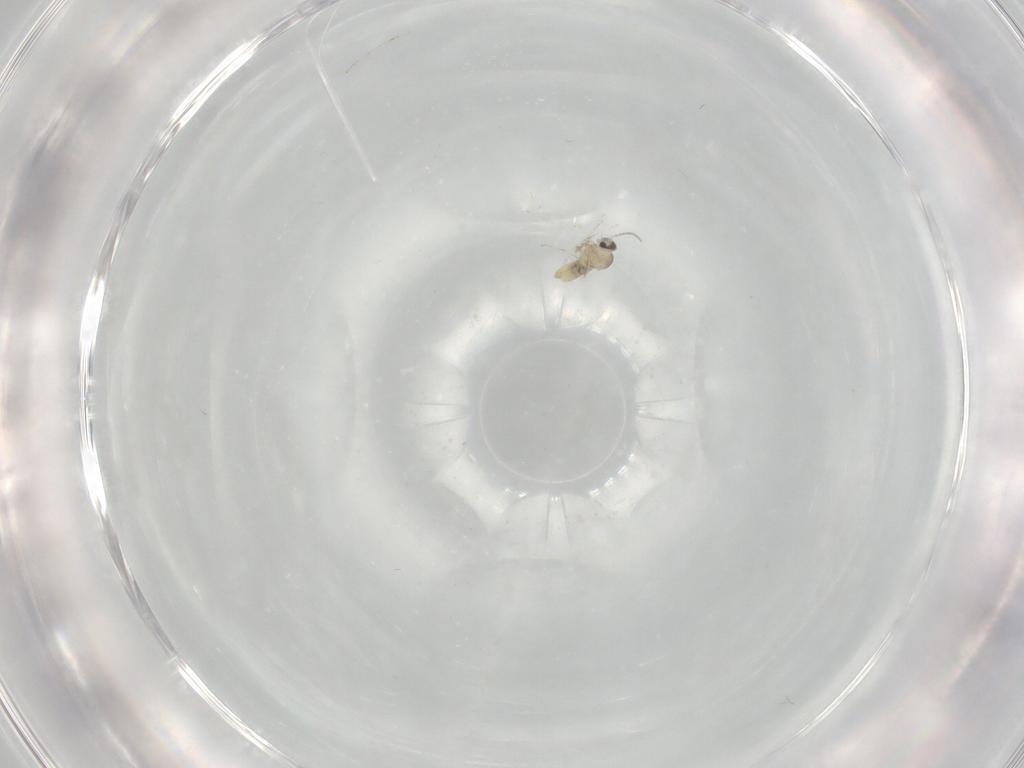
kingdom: Animalia
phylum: Arthropoda
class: Insecta
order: Diptera
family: Cecidomyiidae
